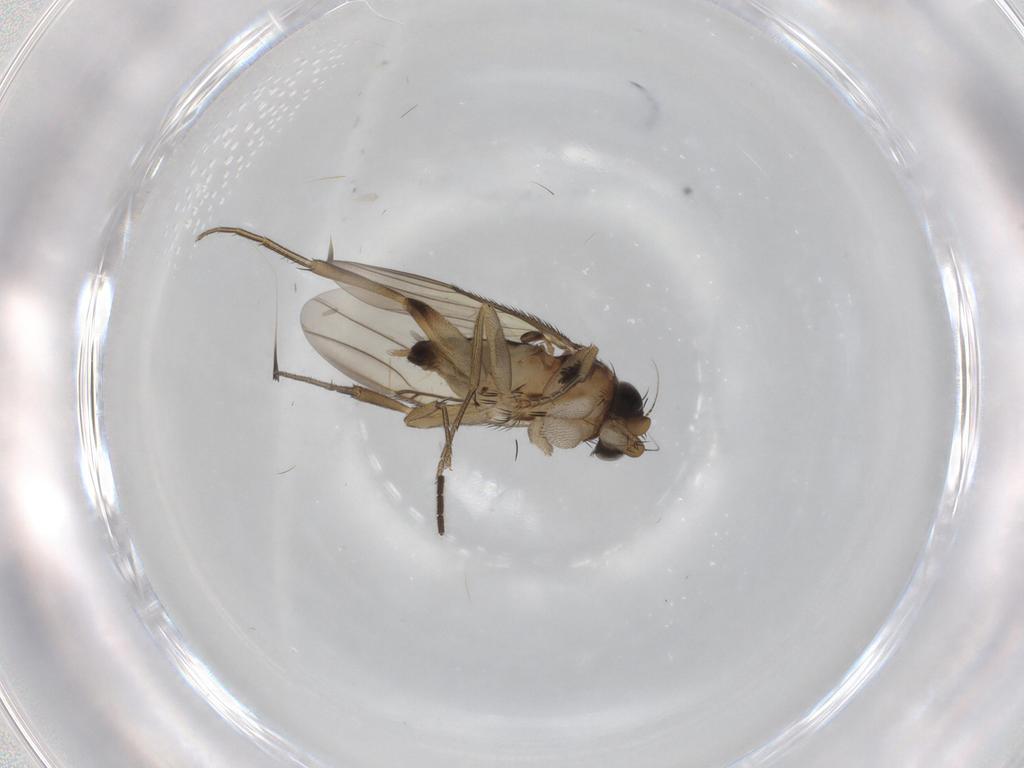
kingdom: Animalia
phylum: Arthropoda
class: Insecta
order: Diptera
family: Phoridae
